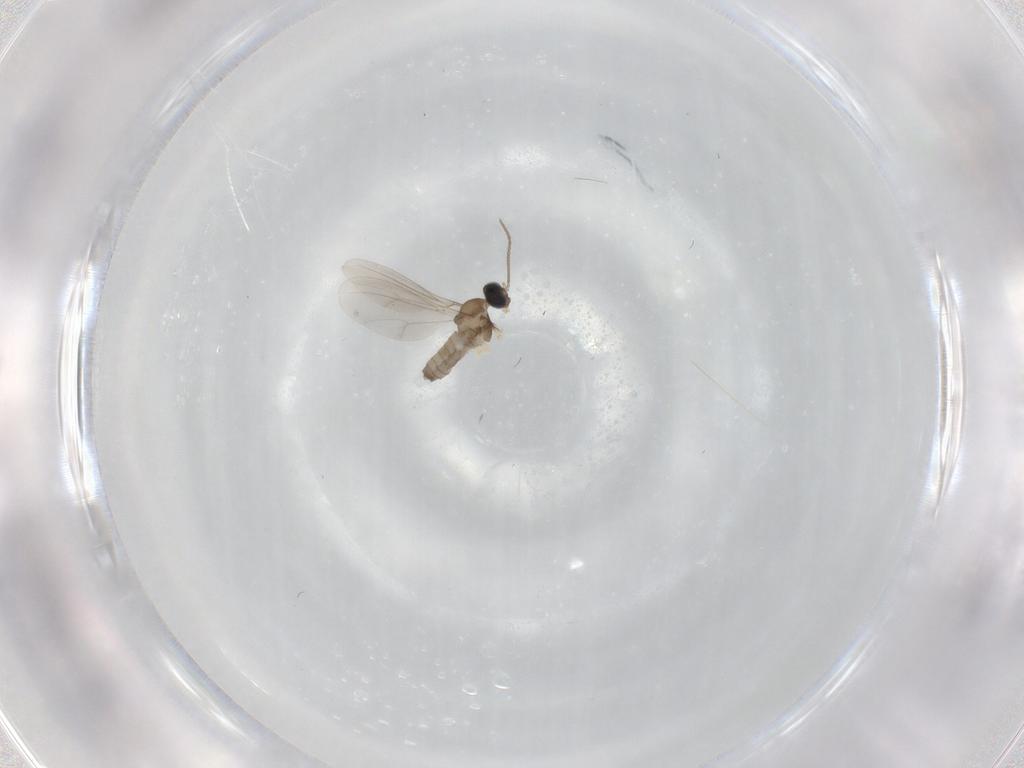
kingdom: Animalia
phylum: Arthropoda
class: Insecta
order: Diptera
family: Cecidomyiidae
